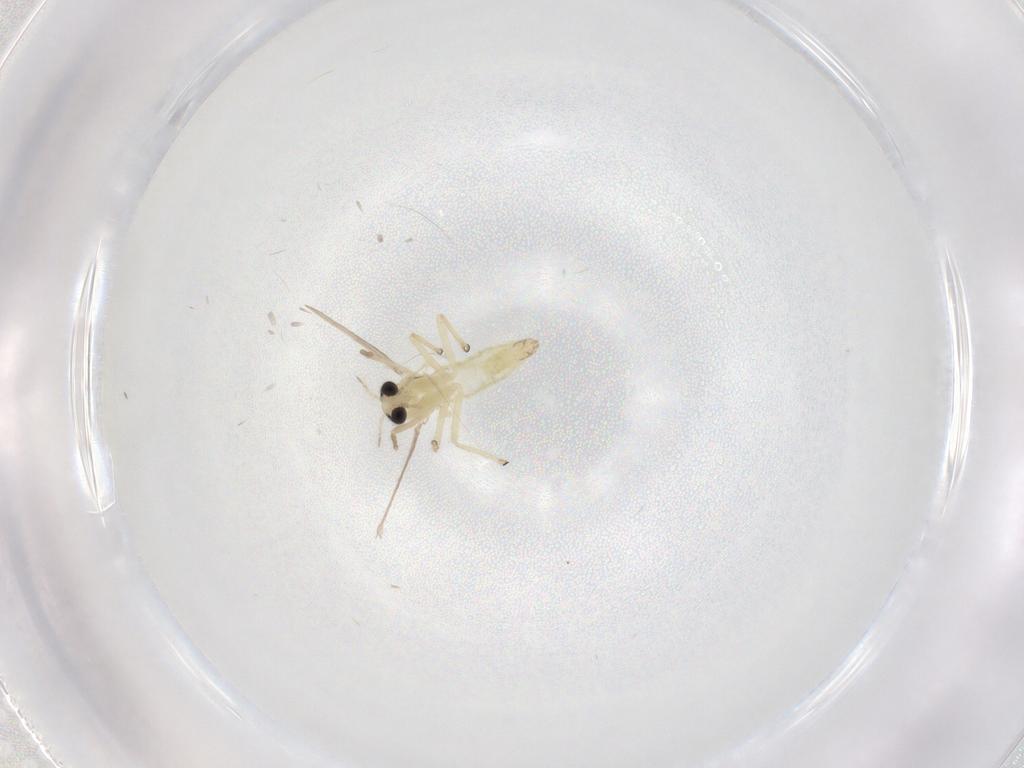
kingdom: Animalia
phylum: Arthropoda
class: Insecta
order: Diptera
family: Chironomidae
